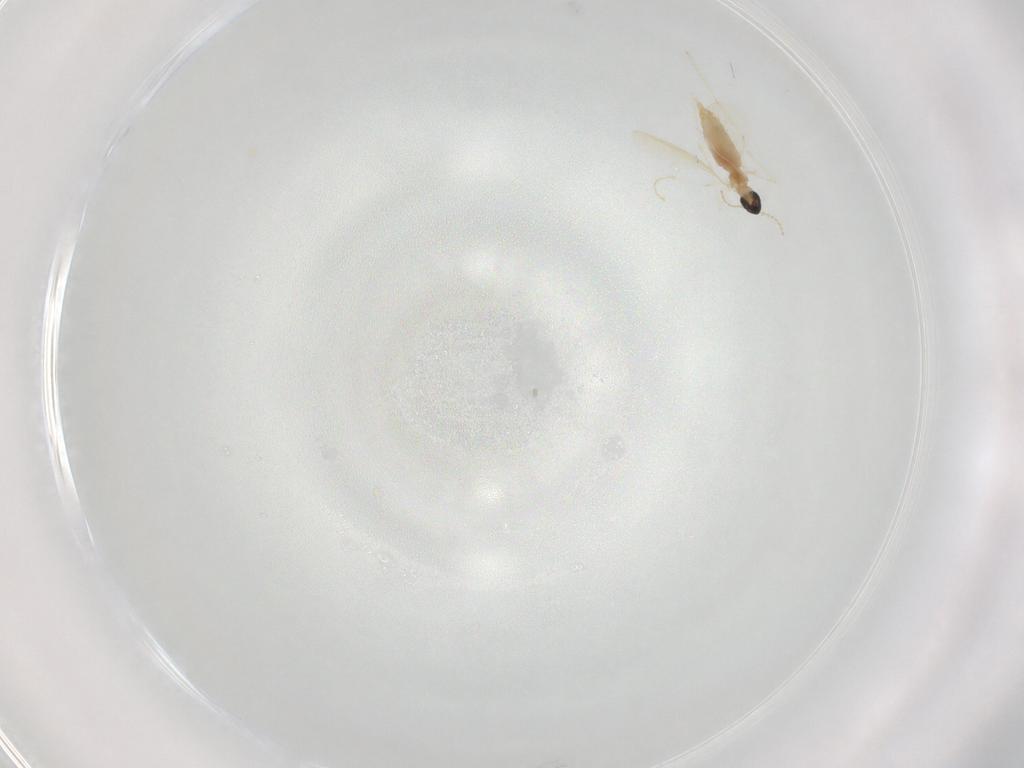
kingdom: Animalia
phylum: Arthropoda
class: Insecta
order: Diptera
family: Cecidomyiidae
